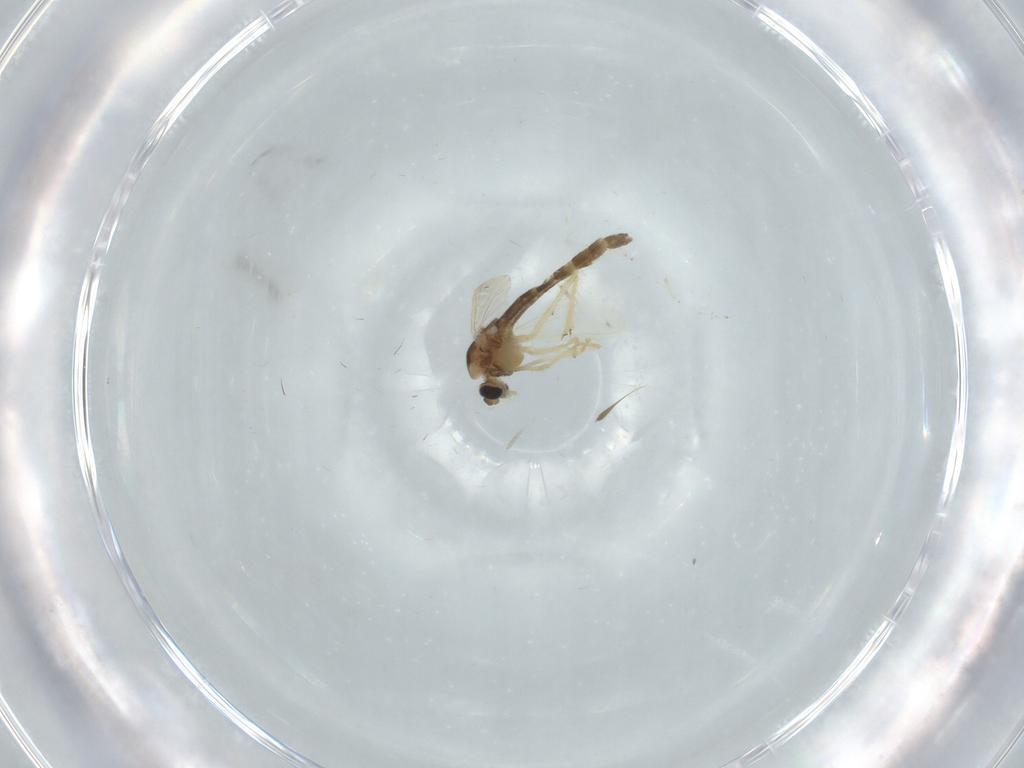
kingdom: Animalia
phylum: Arthropoda
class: Insecta
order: Diptera
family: Chironomidae
